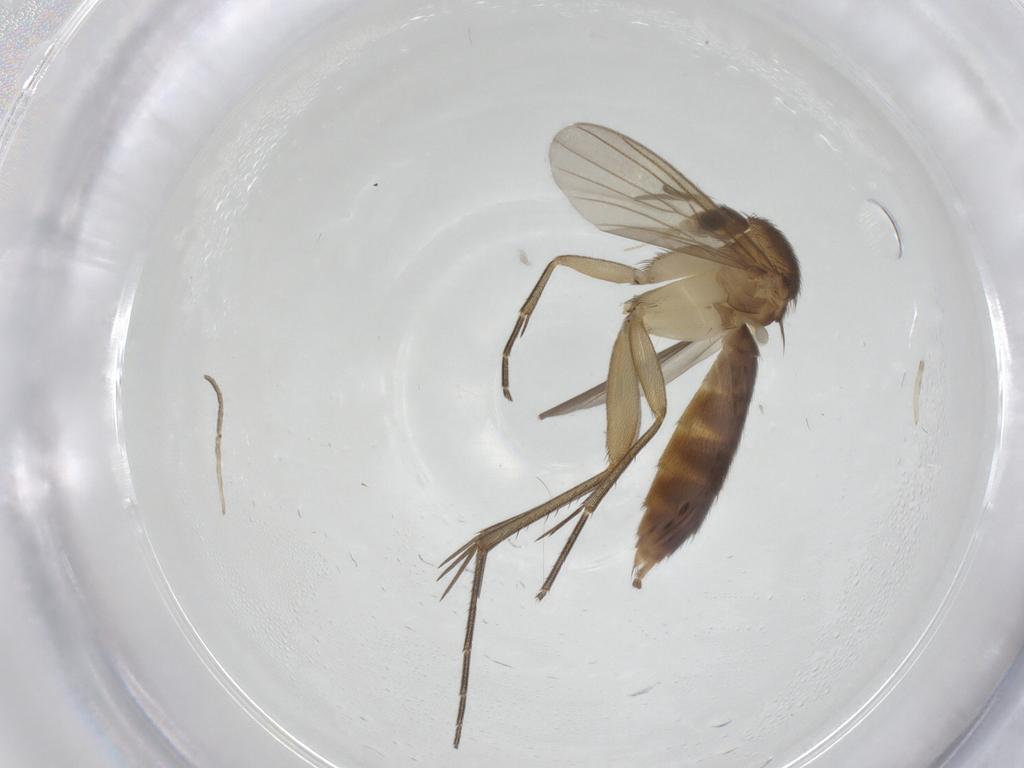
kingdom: Animalia
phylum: Arthropoda
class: Insecta
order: Diptera
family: Mycetophilidae
